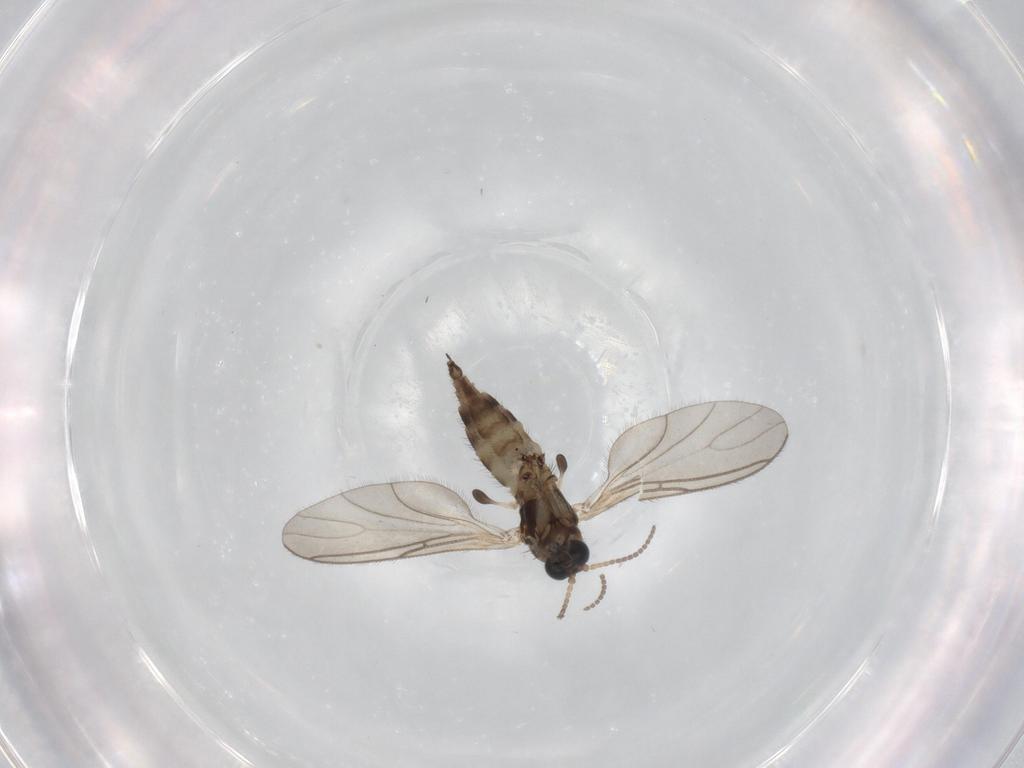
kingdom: Animalia
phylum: Arthropoda
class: Insecta
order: Diptera
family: Sciaridae
